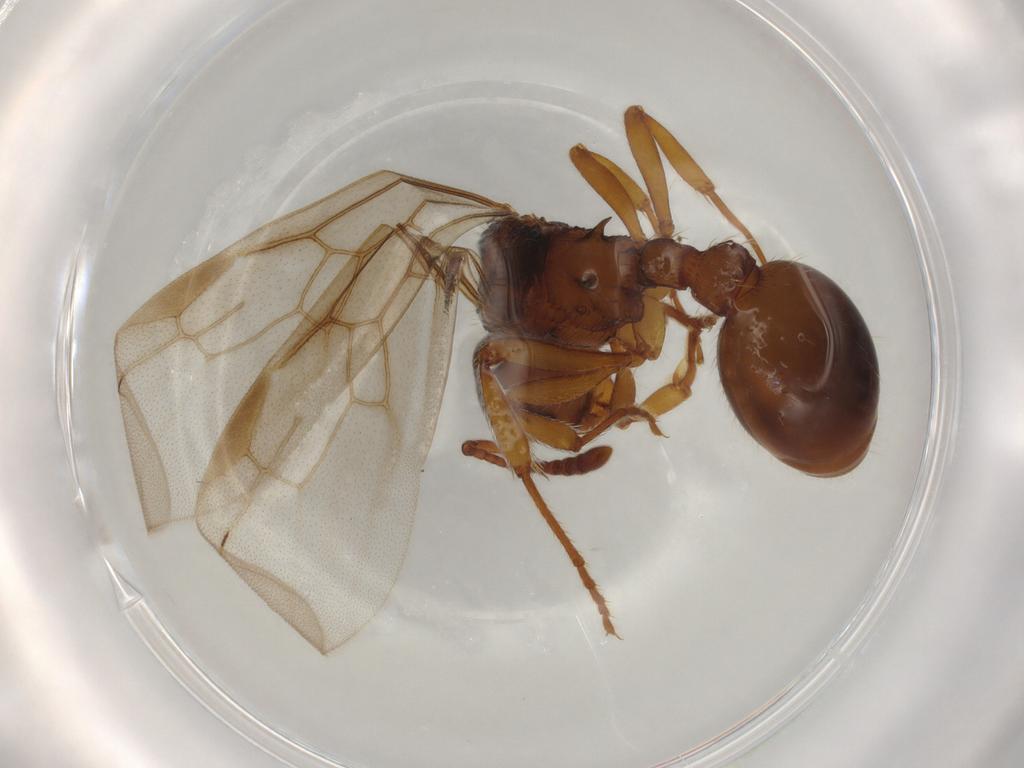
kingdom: Animalia
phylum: Arthropoda
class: Insecta
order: Hymenoptera
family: Formicidae
